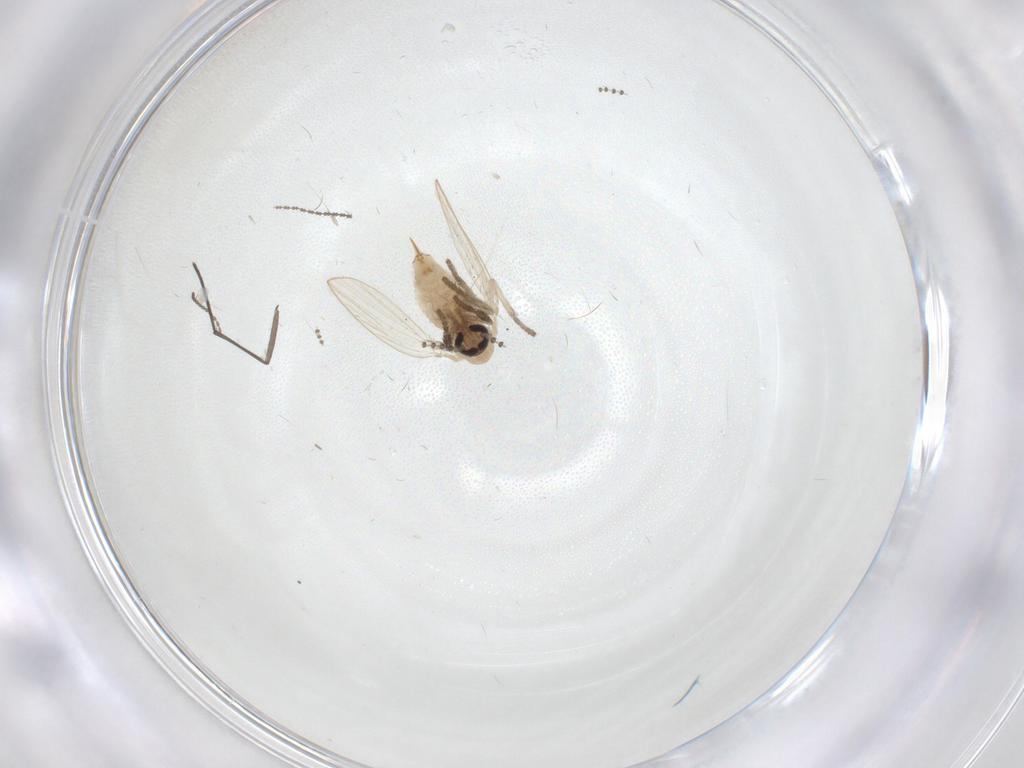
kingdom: Animalia
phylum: Arthropoda
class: Insecta
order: Diptera
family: Psychodidae
